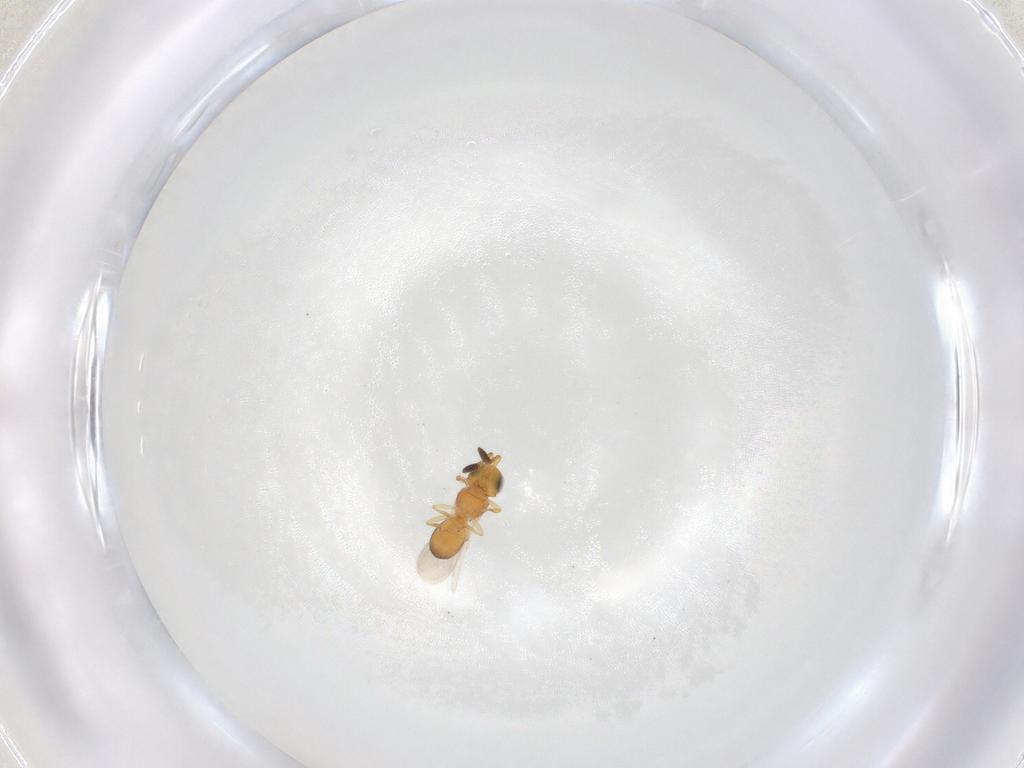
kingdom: Animalia
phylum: Arthropoda
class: Insecta
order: Hymenoptera
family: Scelionidae
